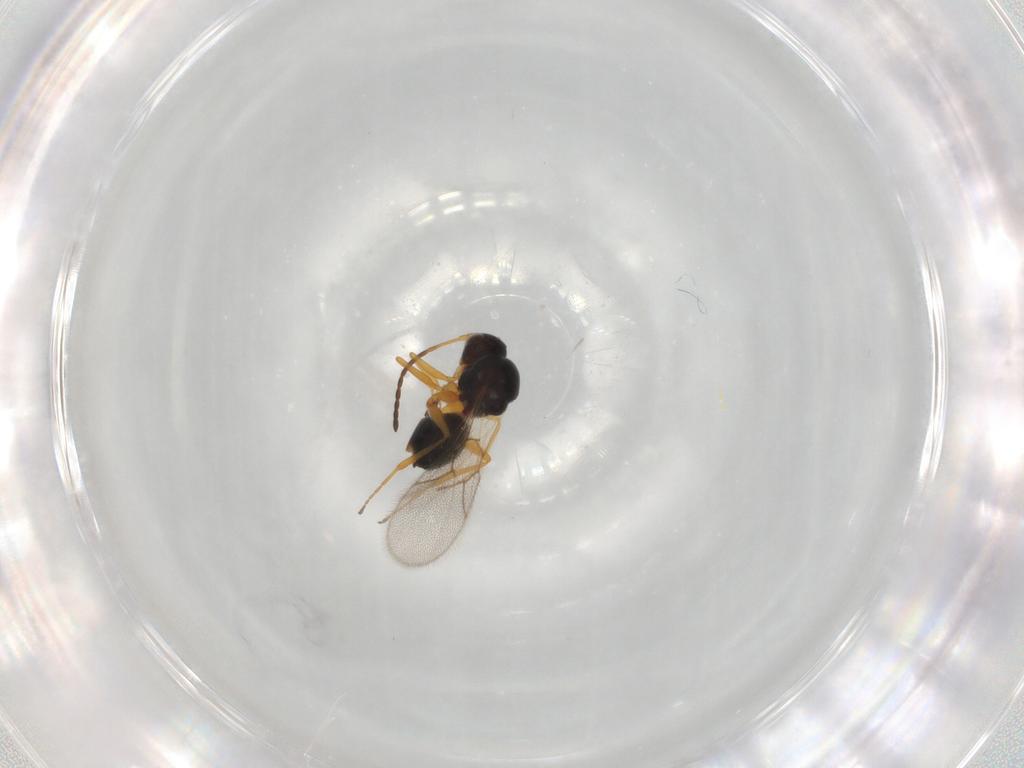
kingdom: Animalia
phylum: Arthropoda
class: Insecta
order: Hymenoptera
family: Figitidae
